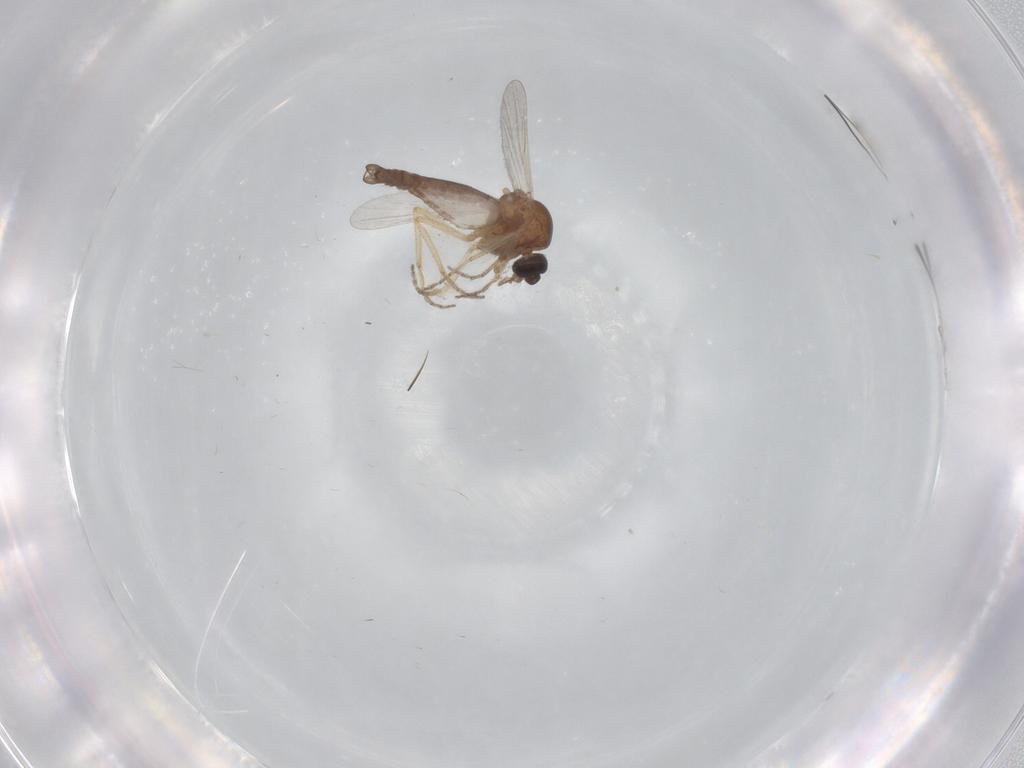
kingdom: Animalia
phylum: Arthropoda
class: Insecta
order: Diptera
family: Ceratopogonidae
